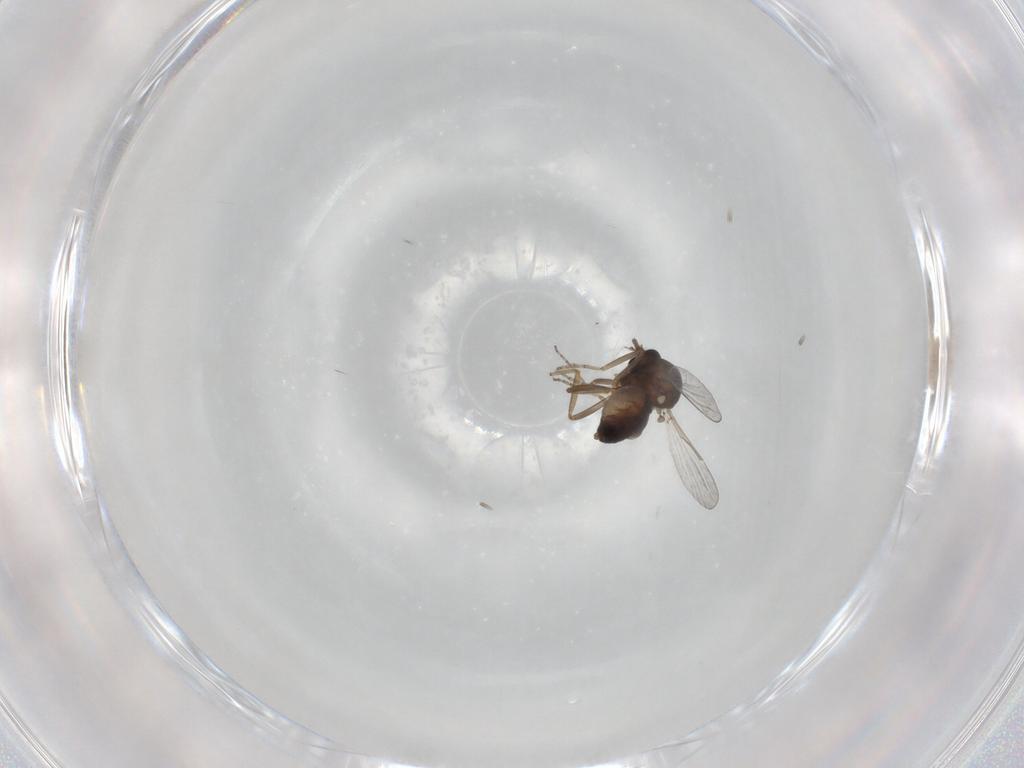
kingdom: Animalia
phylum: Arthropoda
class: Insecta
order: Diptera
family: Ceratopogonidae
